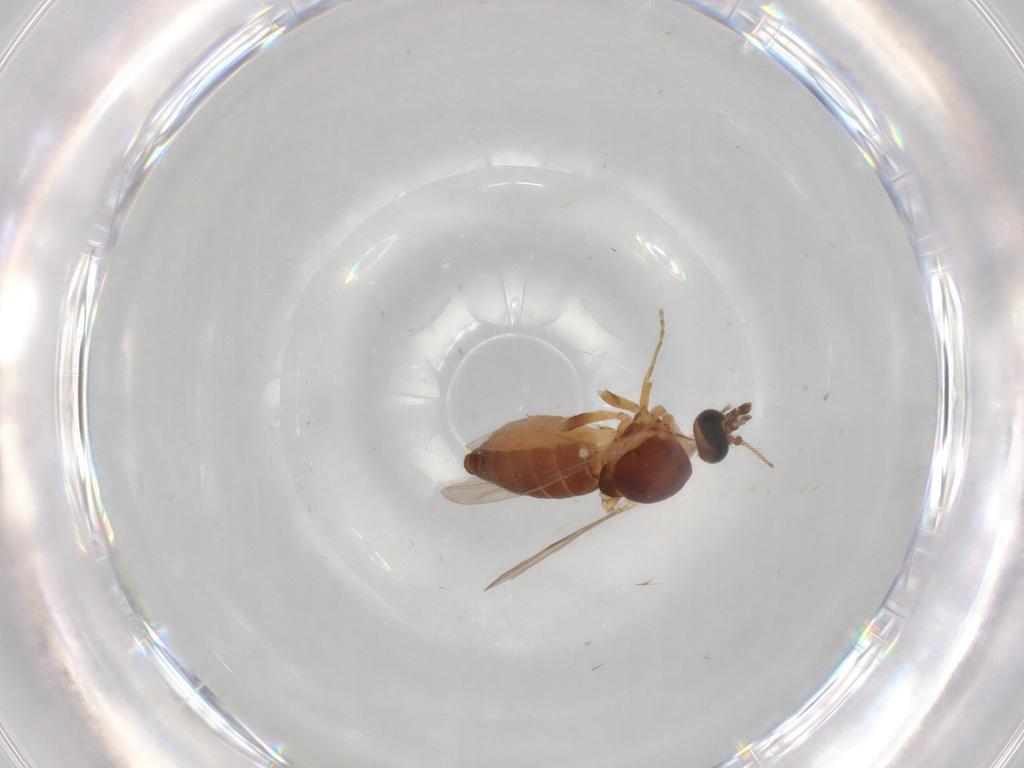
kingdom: Animalia
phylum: Arthropoda
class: Insecta
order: Diptera
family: Ceratopogonidae
